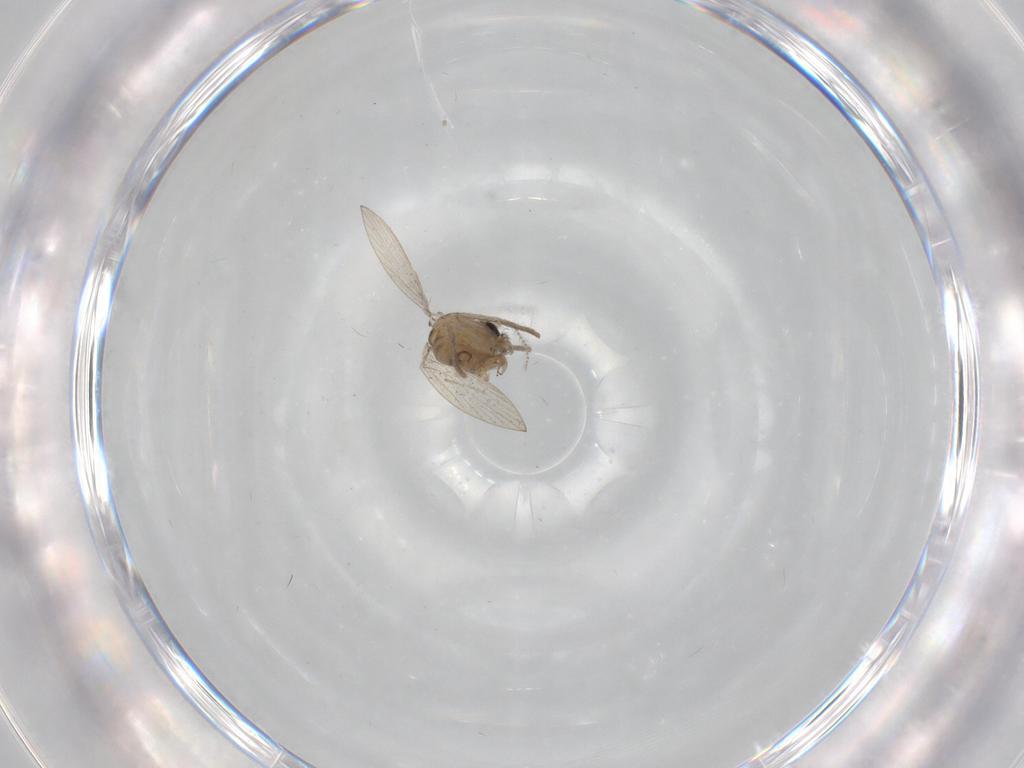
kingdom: Animalia
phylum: Arthropoda
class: Insecta
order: Diptera
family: Psychodidae
